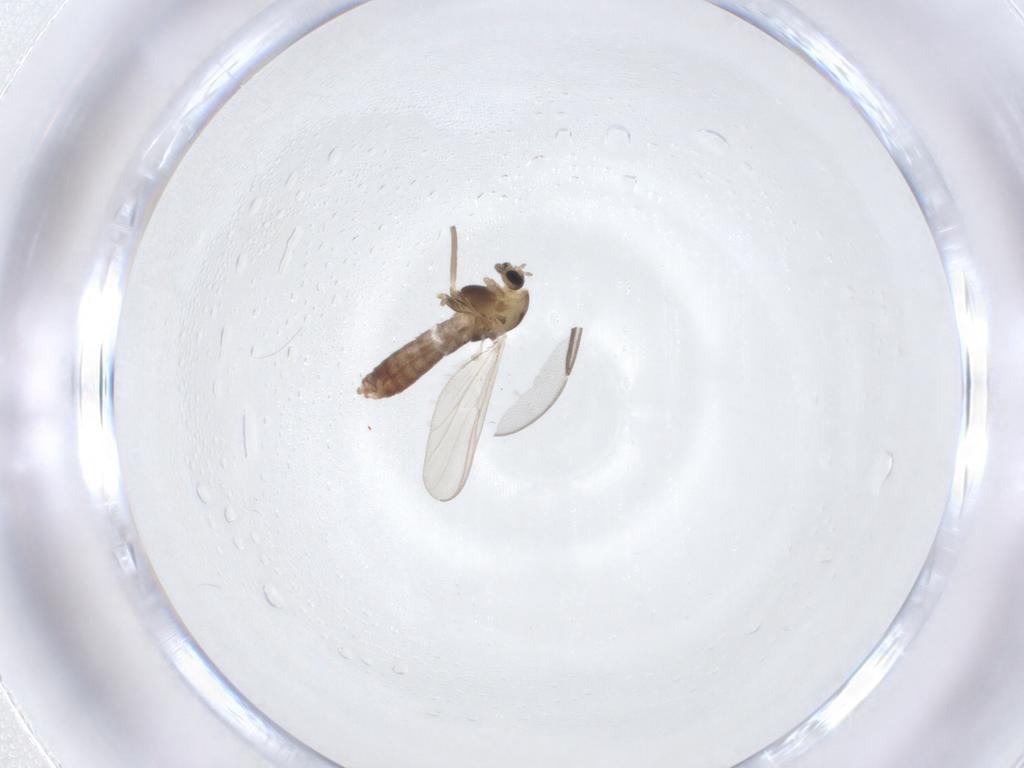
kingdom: Animalia
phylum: Arthropoda
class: Insecta
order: Diptera
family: Chironomidae
